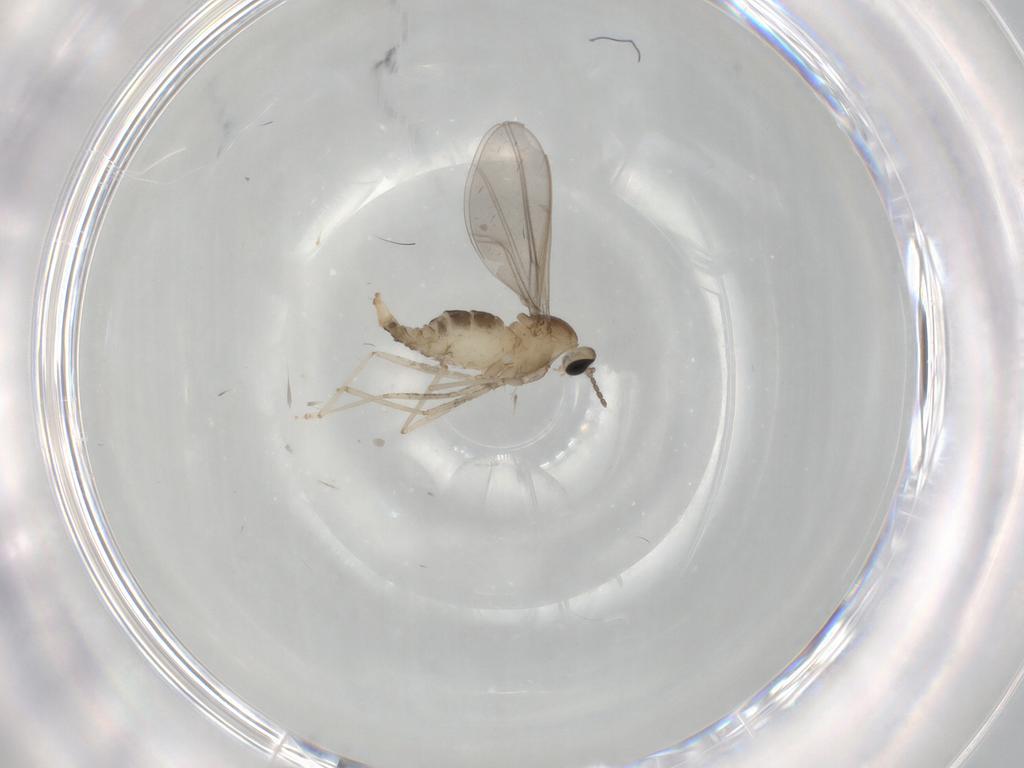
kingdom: Animalia
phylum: Arthropoda
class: Insecta
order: Diptera
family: Cecidomyiidae
